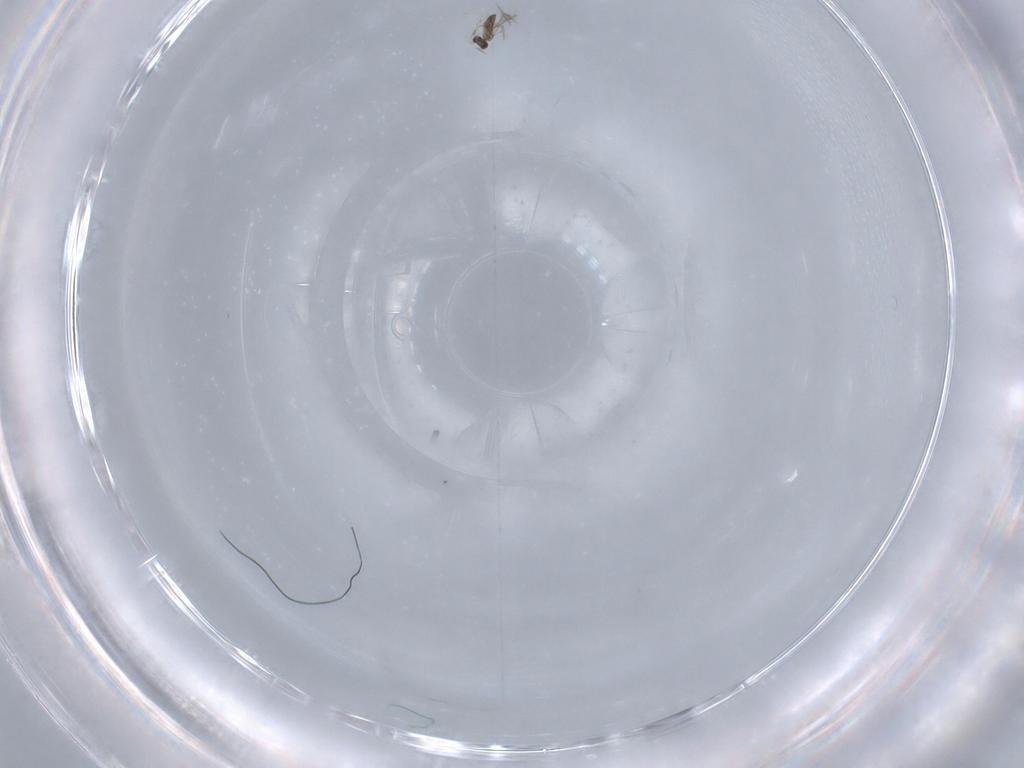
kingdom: Animalia
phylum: Arthropoda
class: Insecta
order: Hymenoptera
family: Mymaridae
